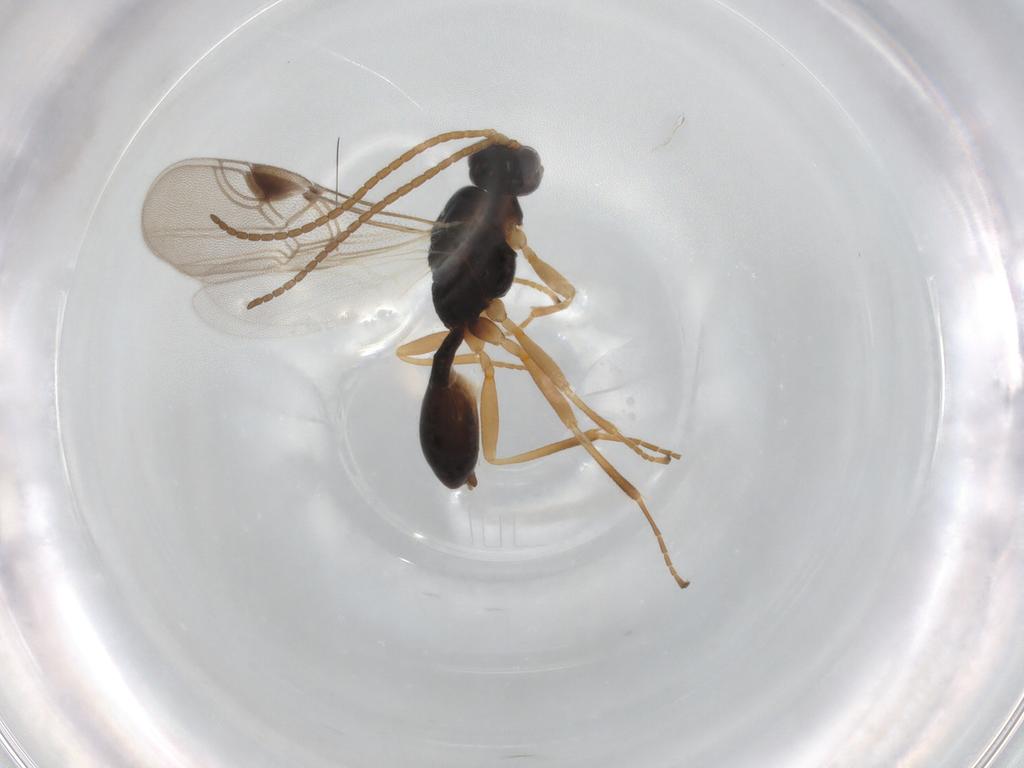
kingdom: Animalia
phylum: Arthropoda
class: Insecta
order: Hymenoptera
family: Braconidae
